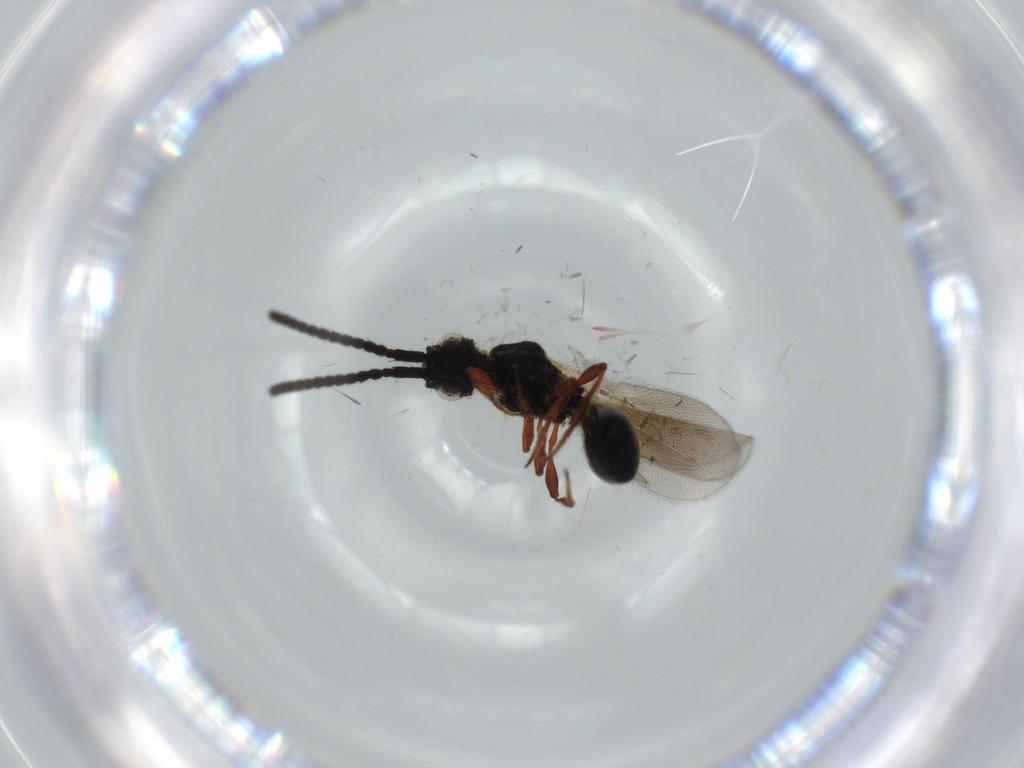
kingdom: Animalia
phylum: Arthropoda
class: Insecta
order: Hymenoptera
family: Diapriidae
